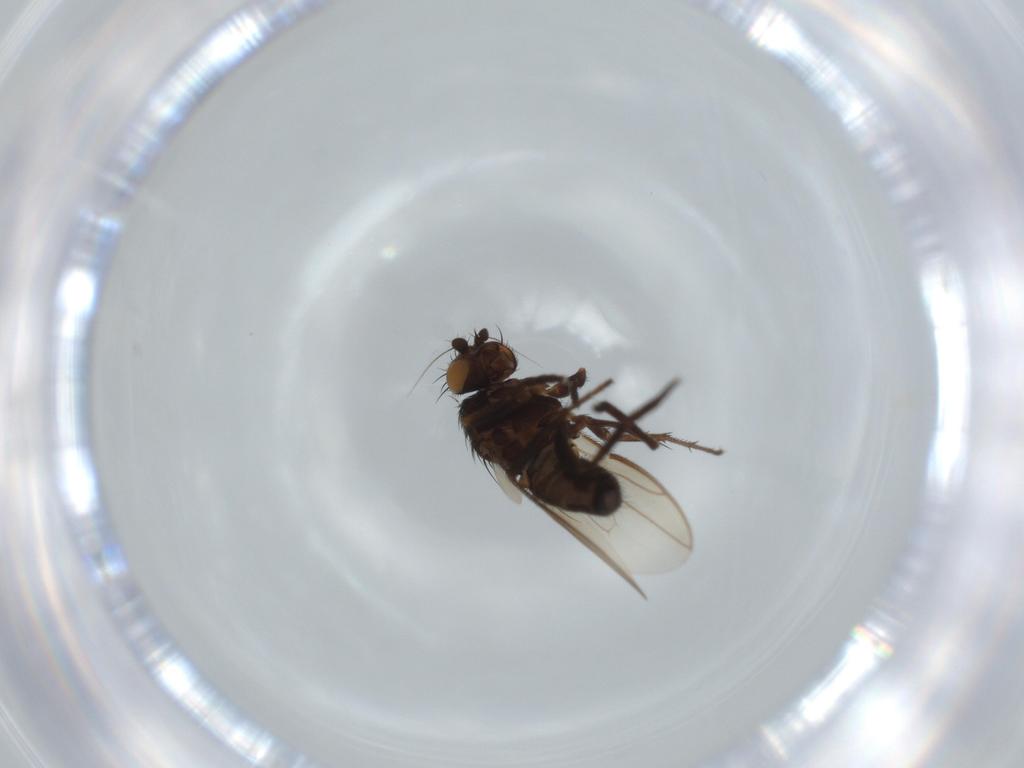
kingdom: Animalia
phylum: Arthropoda
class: Insecta
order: Diptera
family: Sphaeroceridae
